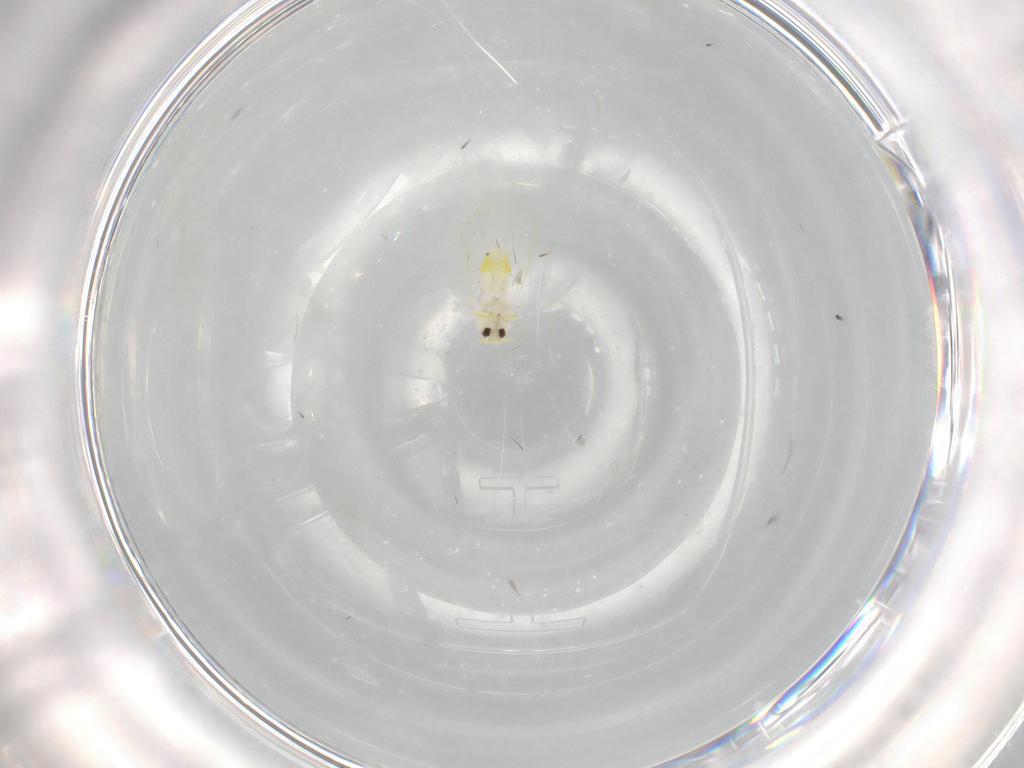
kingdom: Animalia
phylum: Arthropoda
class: Insecta
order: Hemiptera
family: Aleyrodidae
